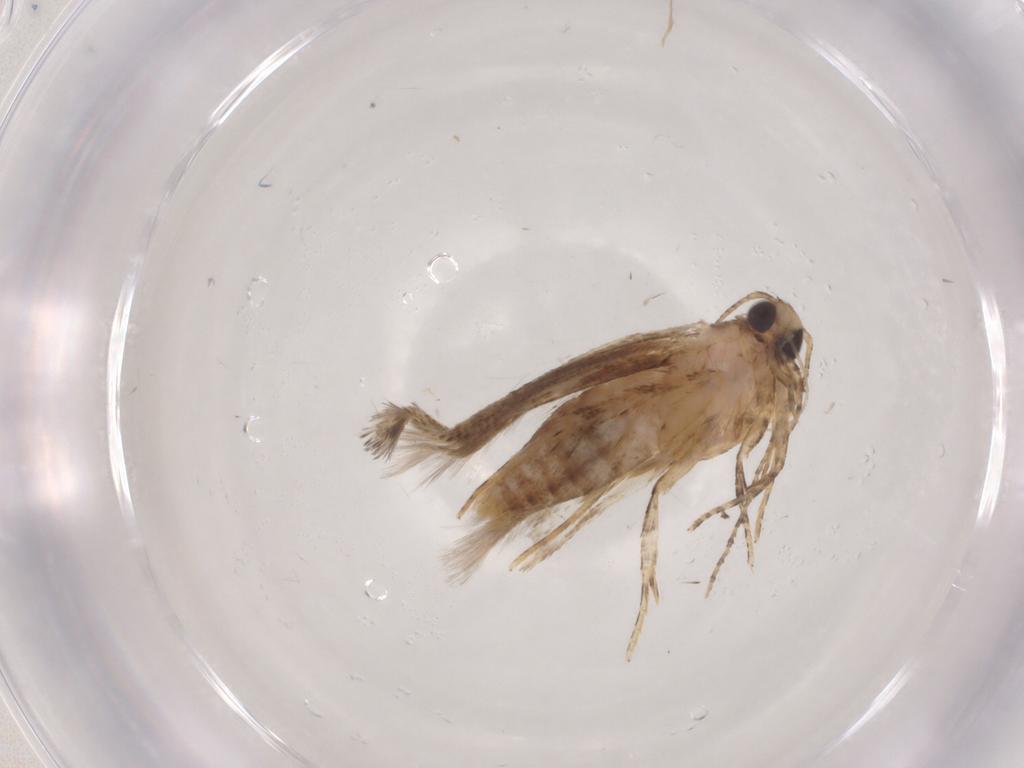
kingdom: Animalia
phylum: Arthropoda
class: Insecta
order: Lepidoptera
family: Gelechiidae
